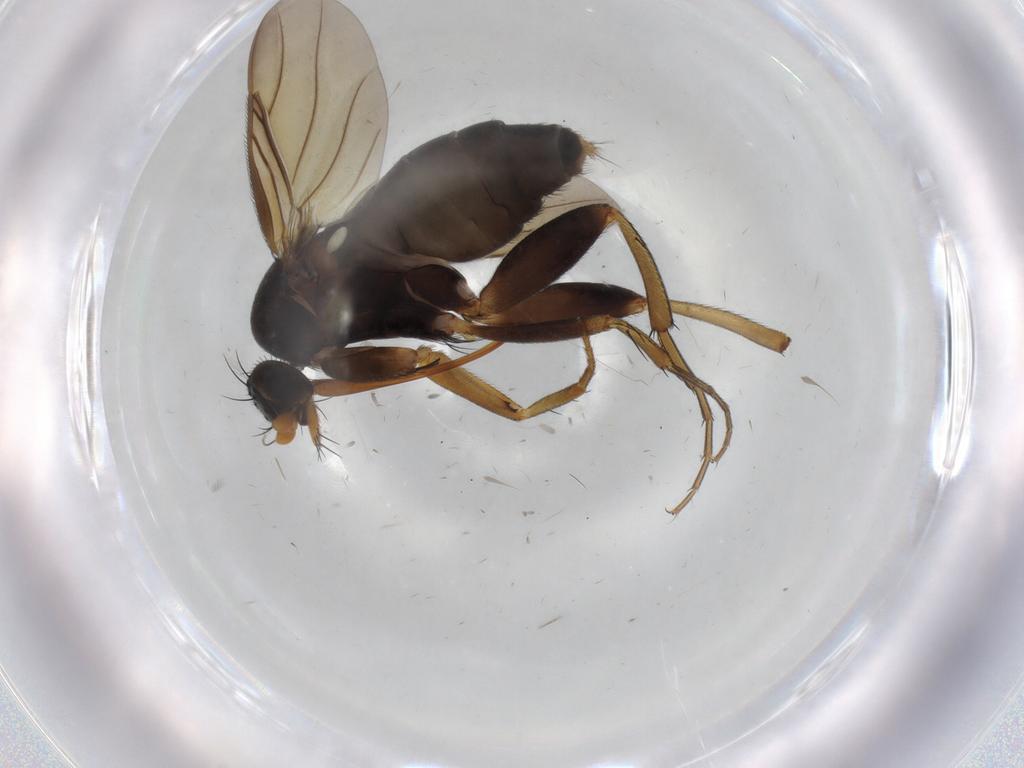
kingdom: Animalia
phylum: Arthropoda
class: Insecta
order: Diptera
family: Phoridae
